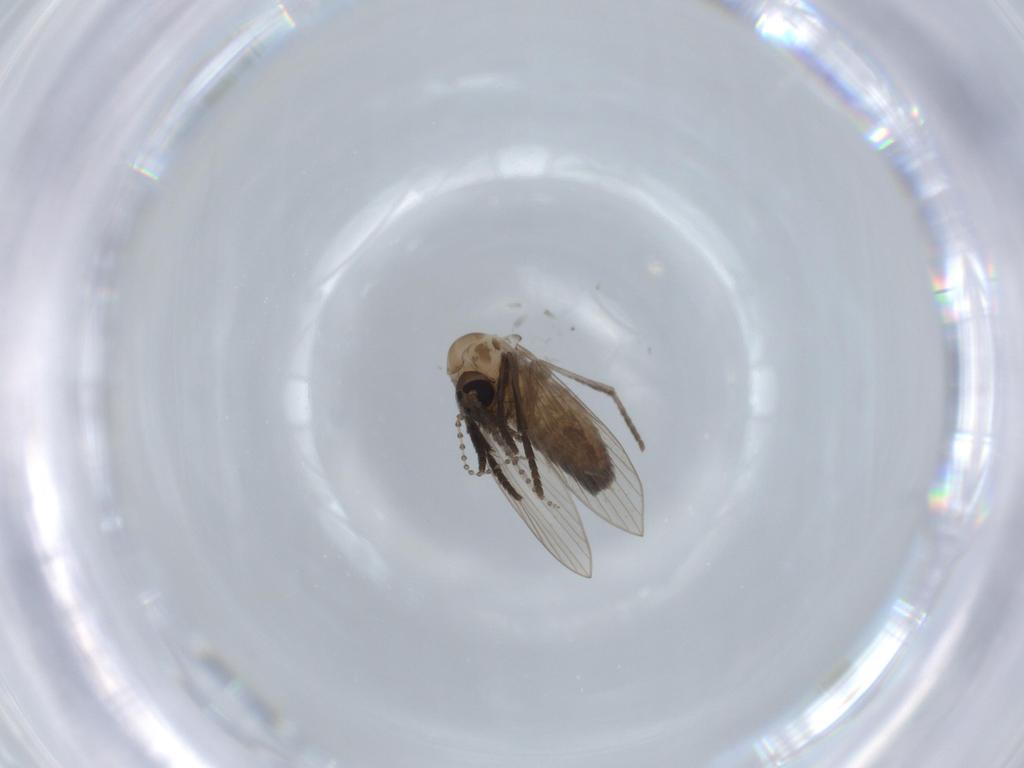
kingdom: Animalia
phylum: Arthropoda
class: Insecta
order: Diptera
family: Psychodidae
